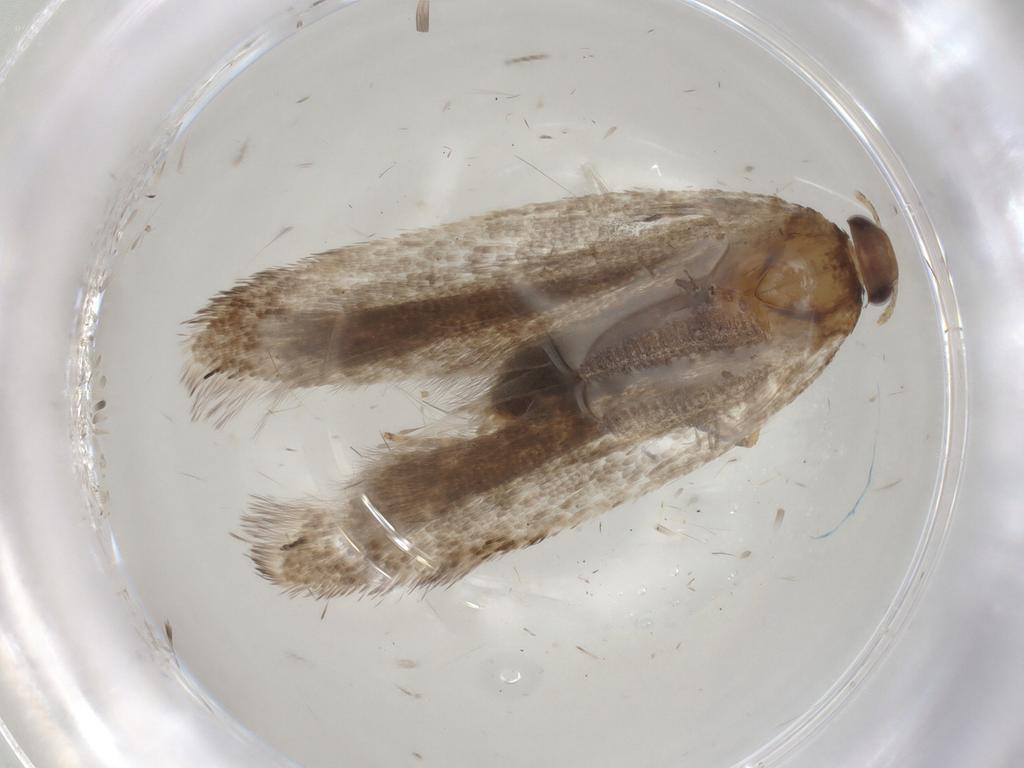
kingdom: Animalia
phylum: Arthropoda
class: Insecta
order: Lepidoptera
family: Gelechiidae
